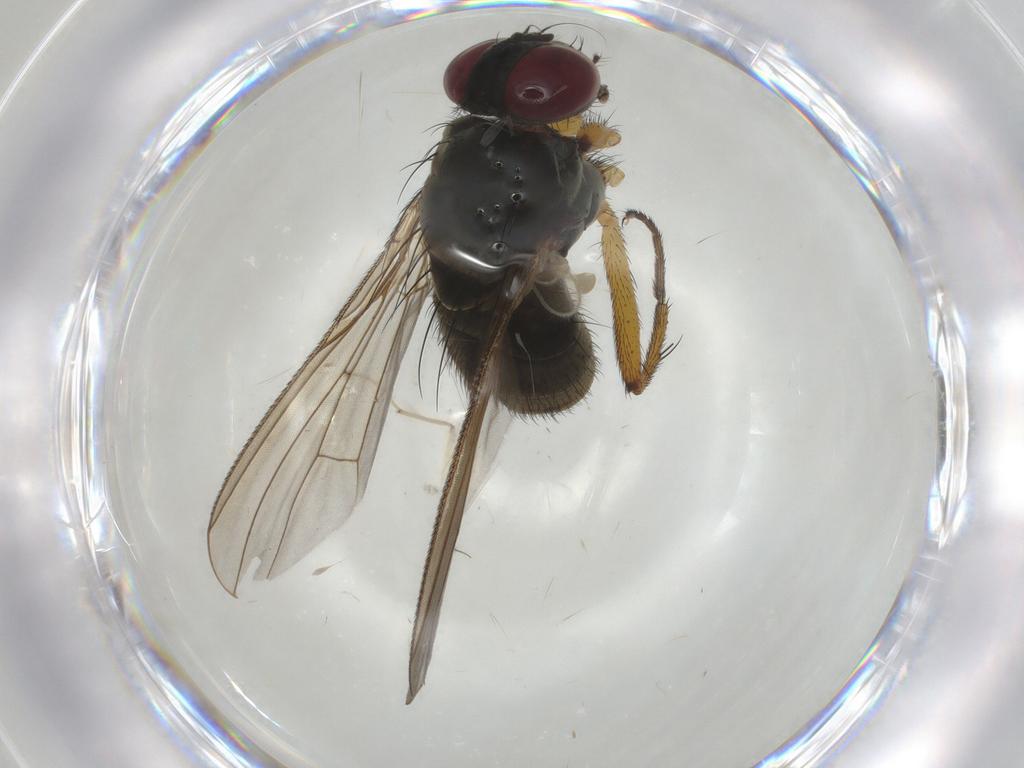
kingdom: Animalia
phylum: Arthropoda
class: Insecta
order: Diptera
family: Muscidae
